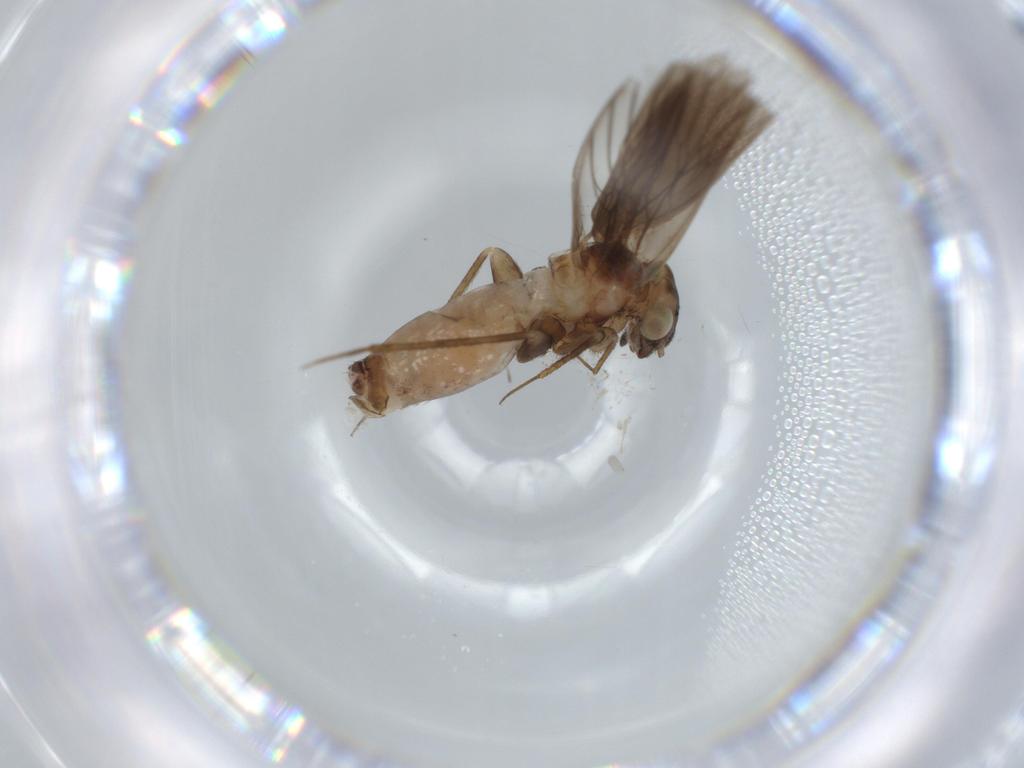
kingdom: Animalia
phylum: Arthropoda
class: Insecta
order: Psocodea
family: Lepidopsocidae
